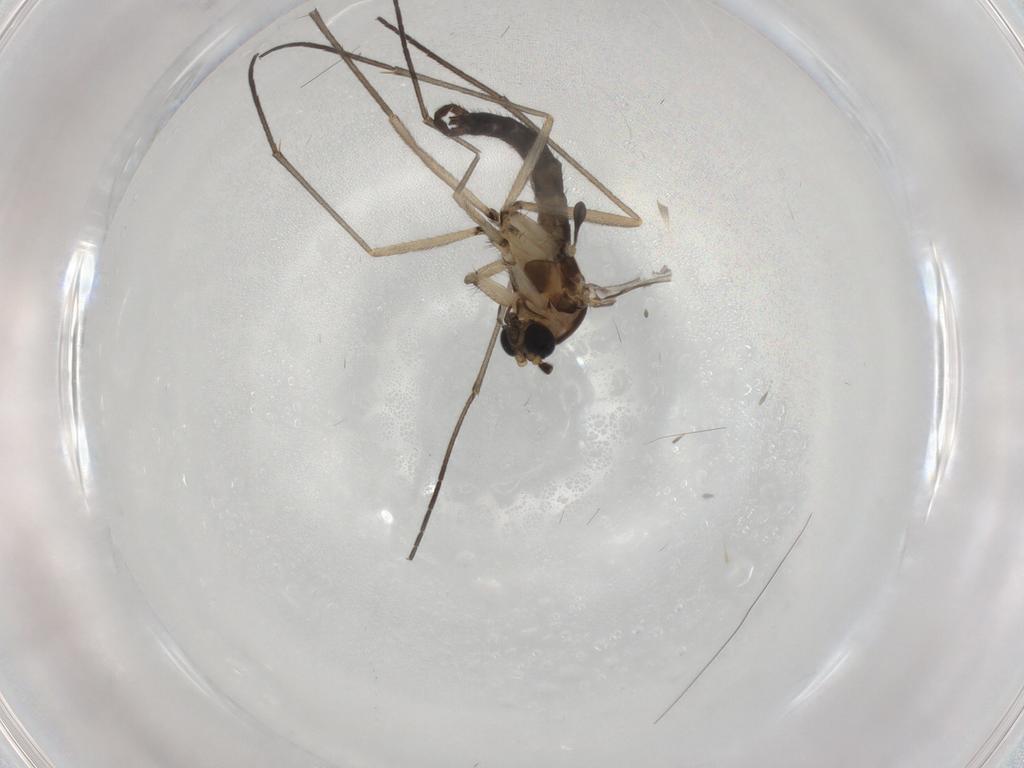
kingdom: Animalia
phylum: Arthropoda
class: Insecta
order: Diptera
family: Sciaridae
